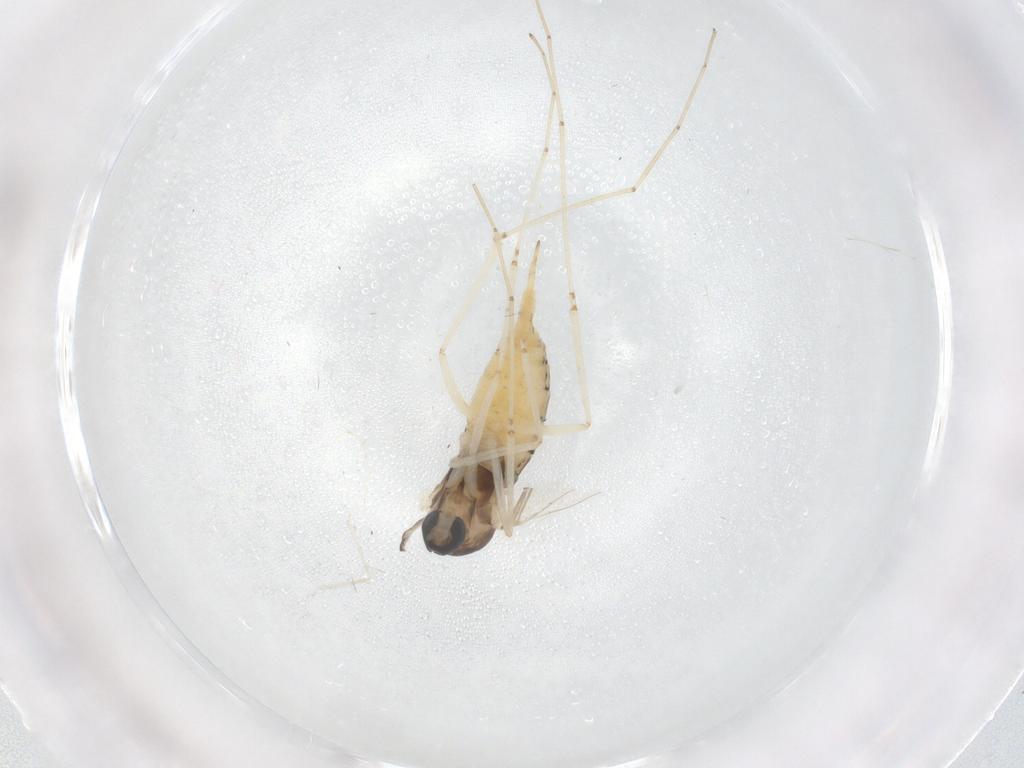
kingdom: Animalia
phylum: Arthropoda
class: Insecta
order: Diptera
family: Cecidomyiidae
